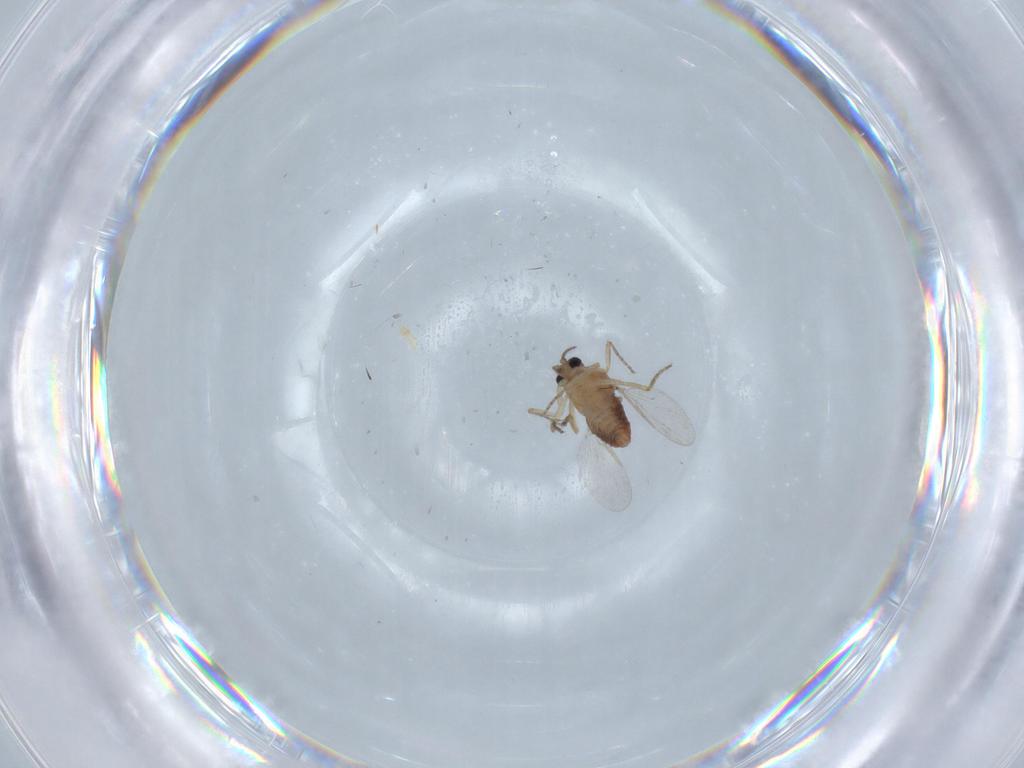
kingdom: Animalia
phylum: Arthropoda
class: Insecta
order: Diptera
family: Ceratopogonidae
